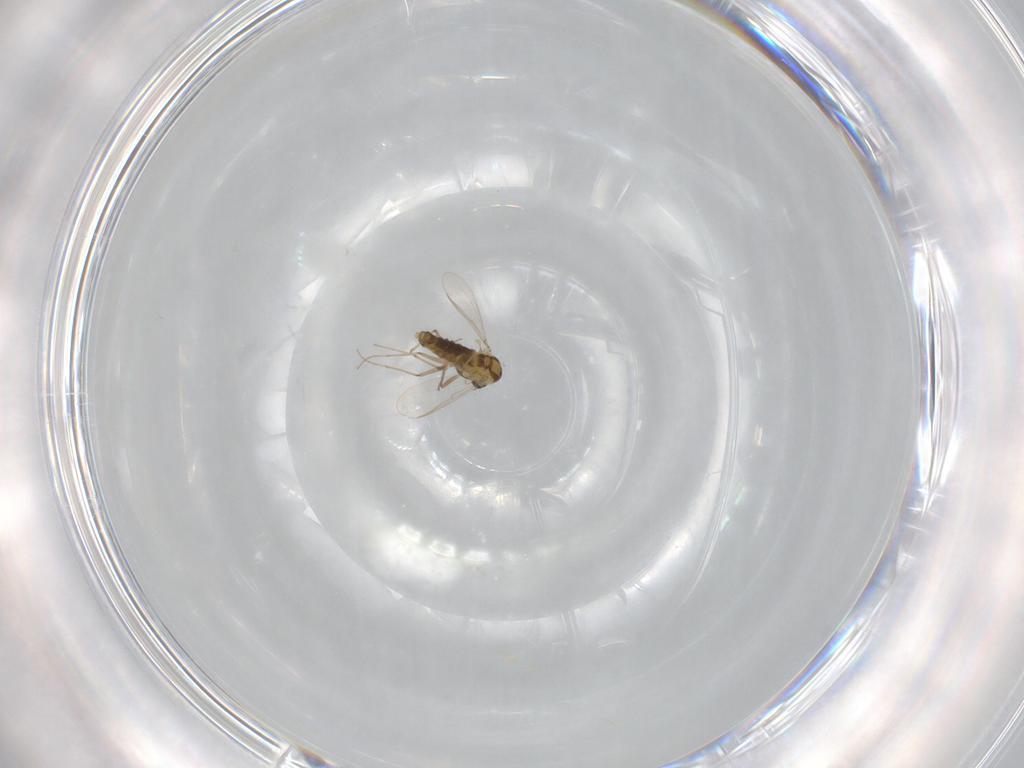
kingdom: Animalia
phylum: Arthropoda
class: Insecta
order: Diptera
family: Chironomidae
